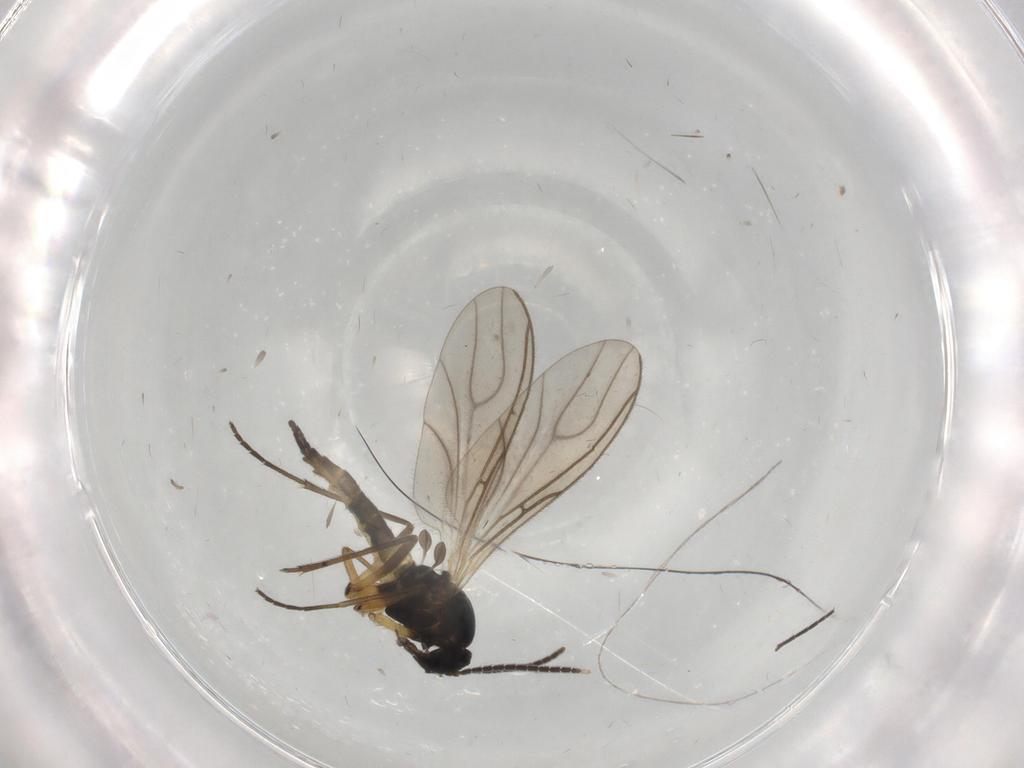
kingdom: Animalia
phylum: Arthropoda
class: Insecta
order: Diptera
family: Sciaridae
